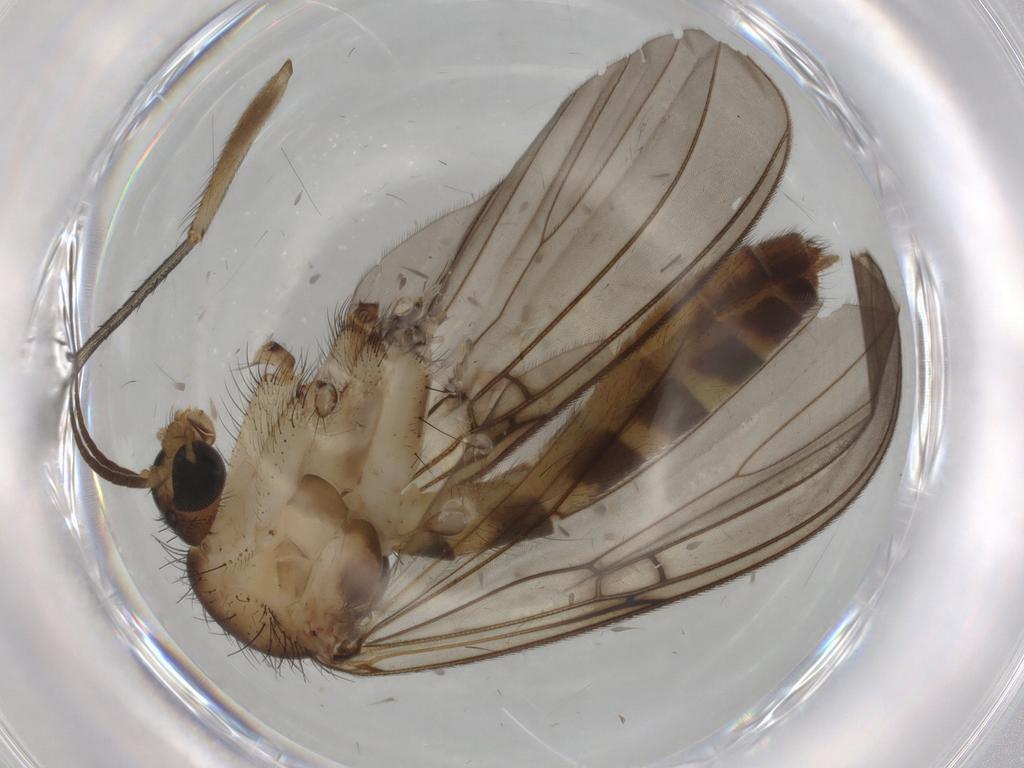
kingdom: Animalia
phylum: Arthropoda
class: Insecta
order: Diptera
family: Mycetophilidae
